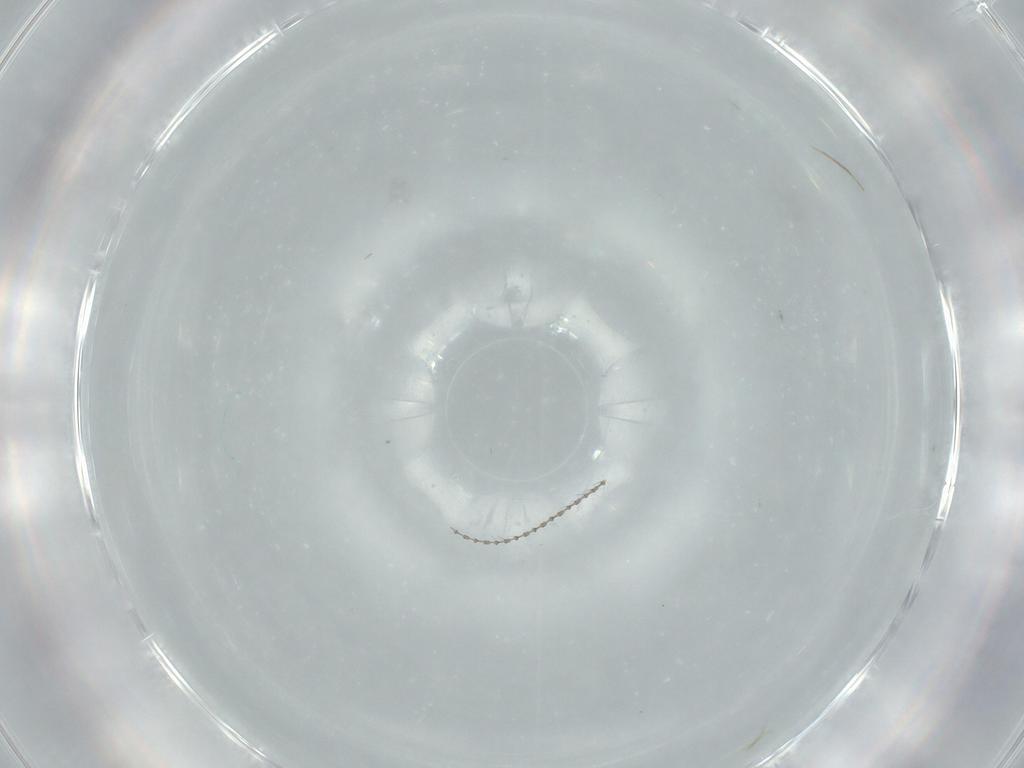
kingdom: Animalia
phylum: Arthropoda
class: Insecta
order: Diptera
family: Cecidomyiidae
